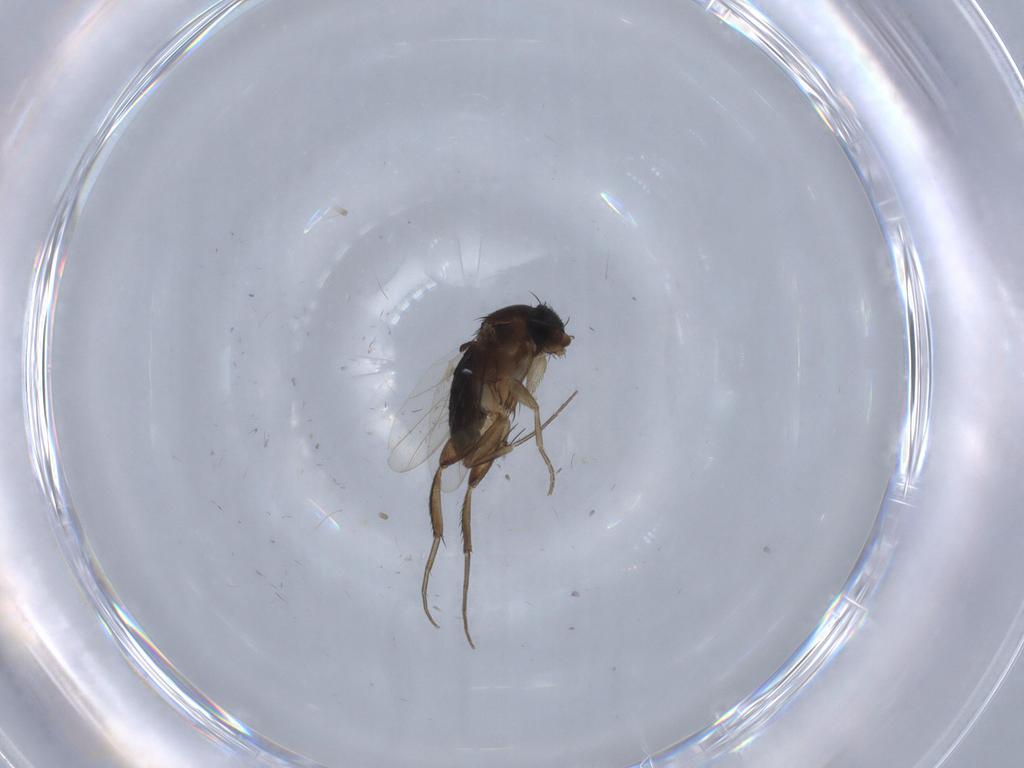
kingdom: Animalia
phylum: Arthropoda
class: Insecta
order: Diptera
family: Phoridae
